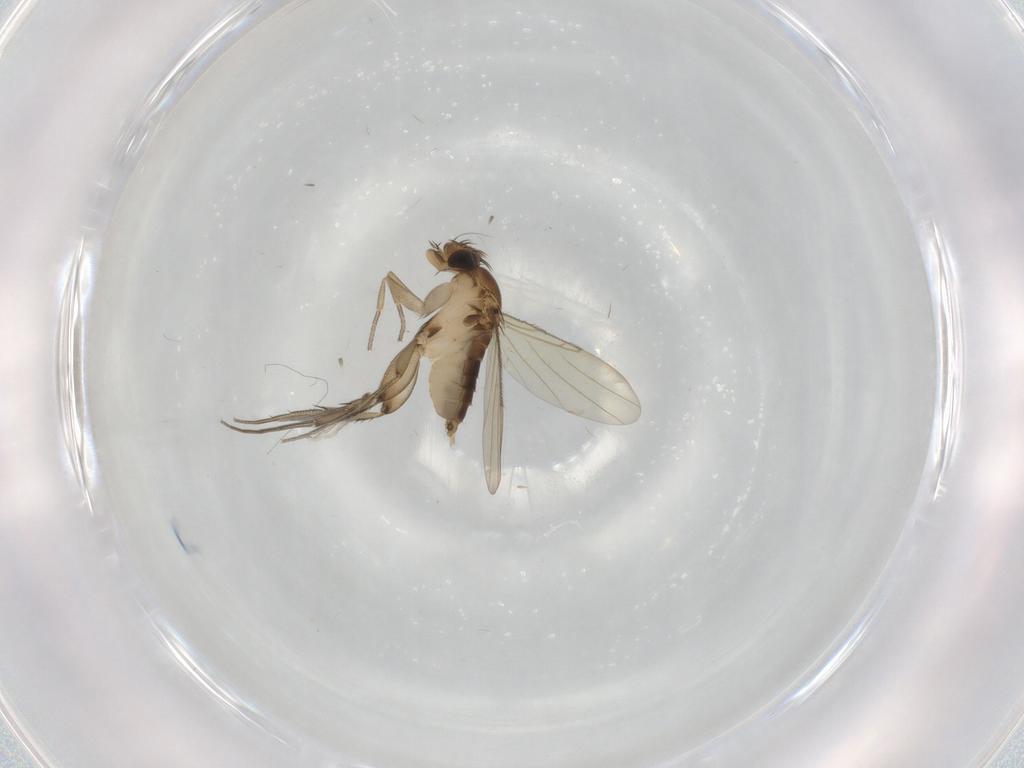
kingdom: Animalia
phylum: Arthropoda
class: Insecta
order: Diptera
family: Phoridae
